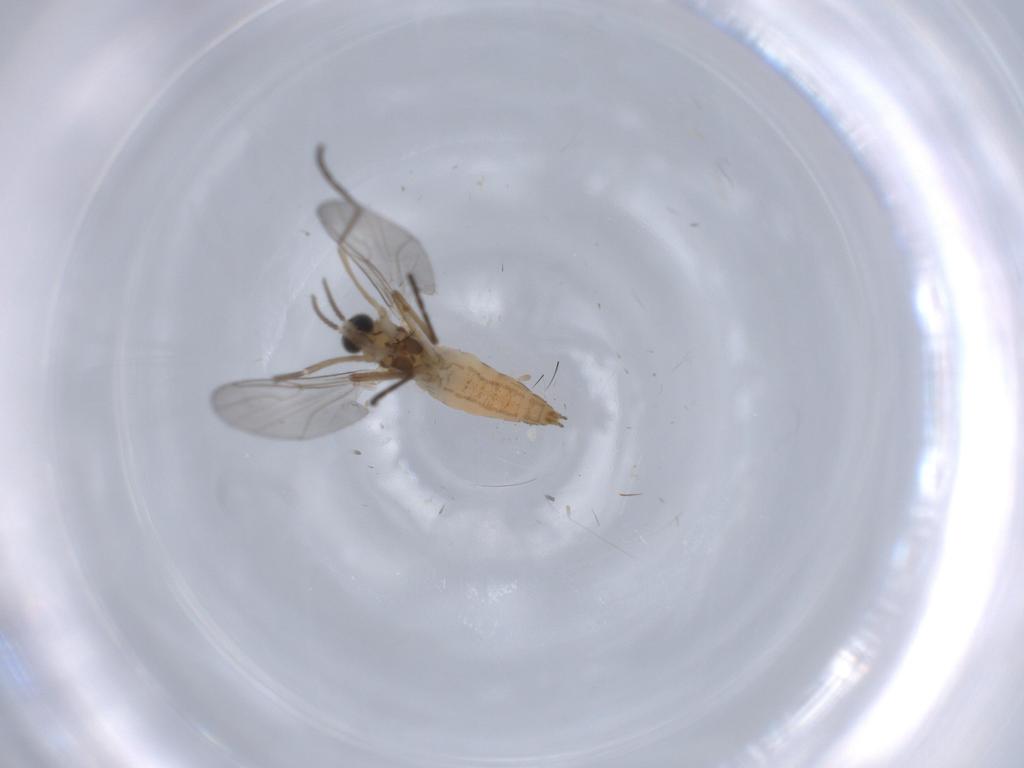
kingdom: Animalia
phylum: Arthropoda
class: Insecta
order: Diptera
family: Cecidomyiidae
